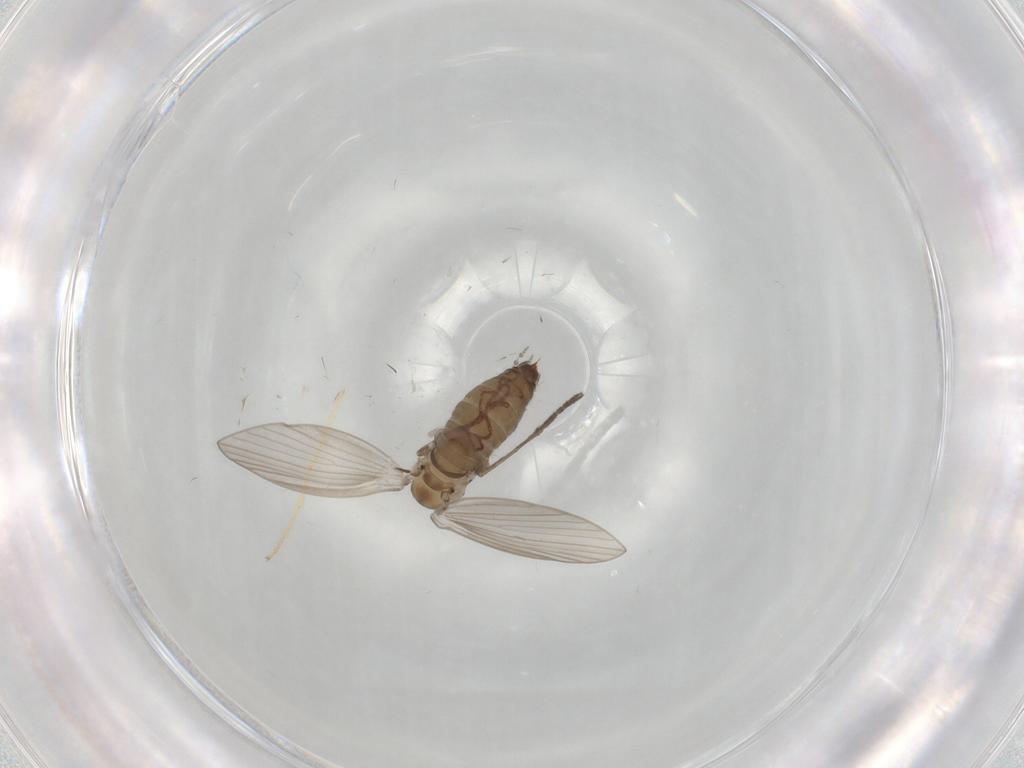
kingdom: Animalia
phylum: Arthropoda
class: Insecta
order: Diptera
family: Psychodidae
